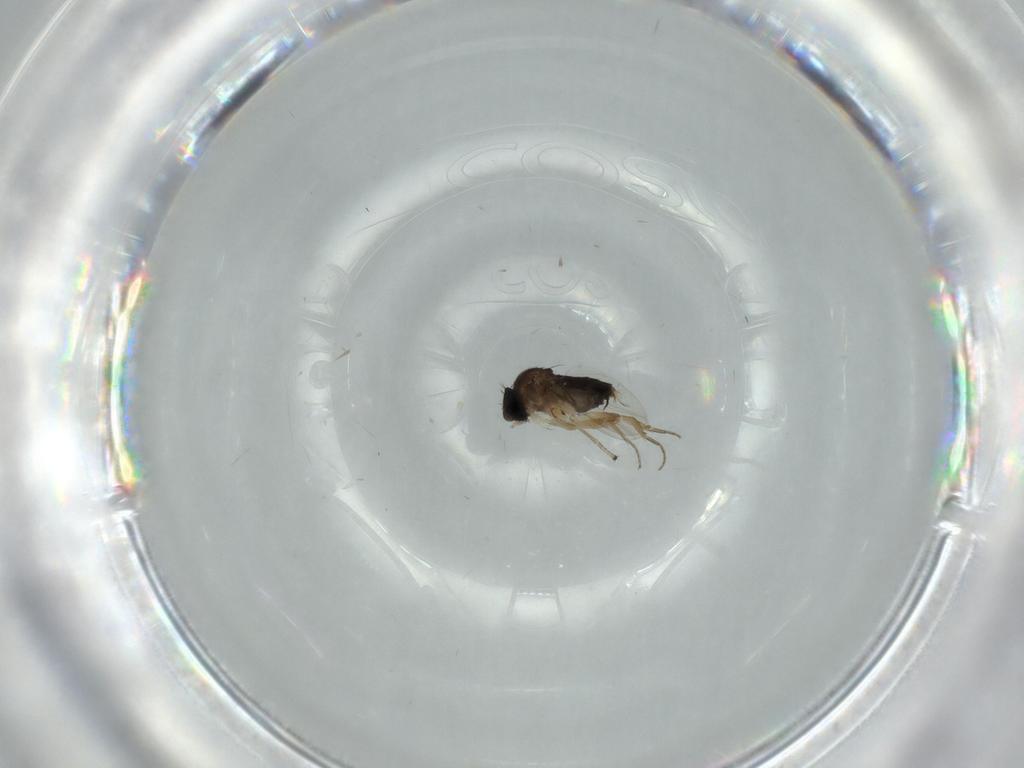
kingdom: Animalia
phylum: Arthropoda
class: Insecta
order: Diptera
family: Phoridae
